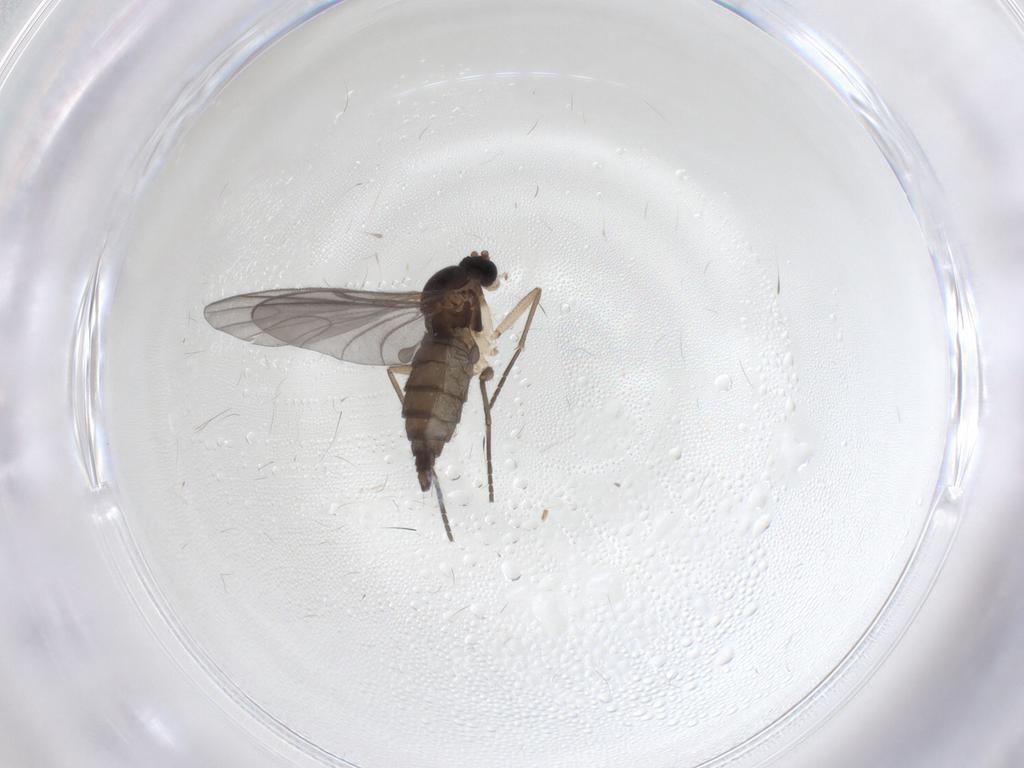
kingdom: Animalia
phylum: Arthropoda
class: Insecta
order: Diptera
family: Sciaridae
